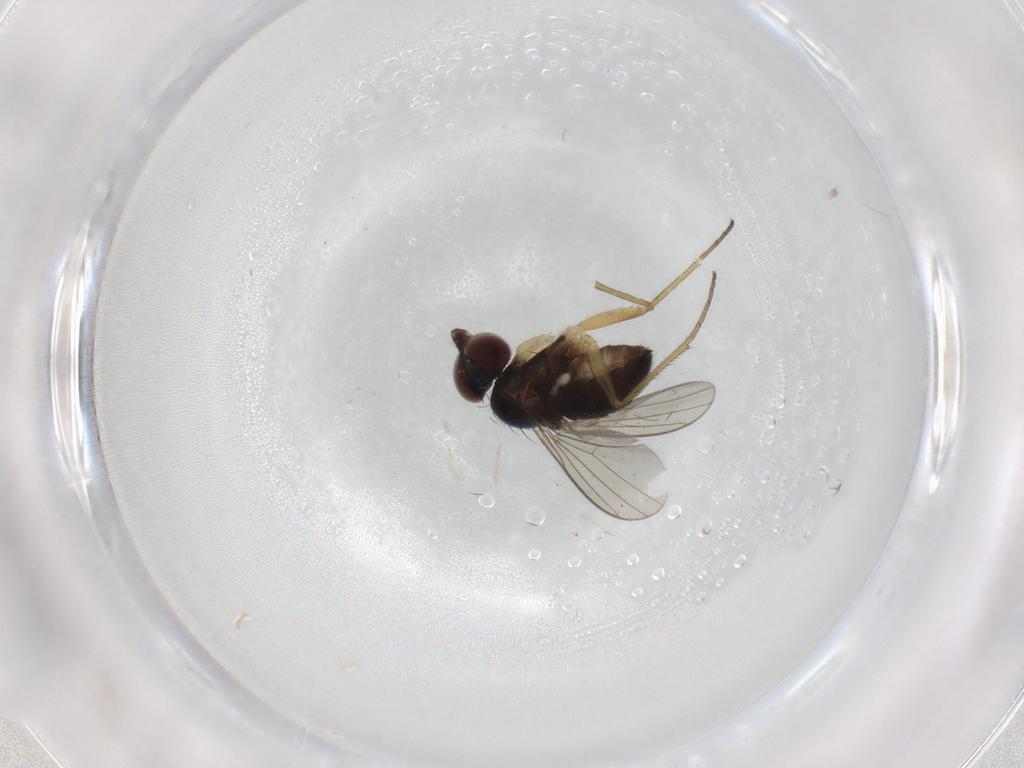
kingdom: Animalia
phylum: Arthropoda
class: Insecta
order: Diptera
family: Dolichopodidae
